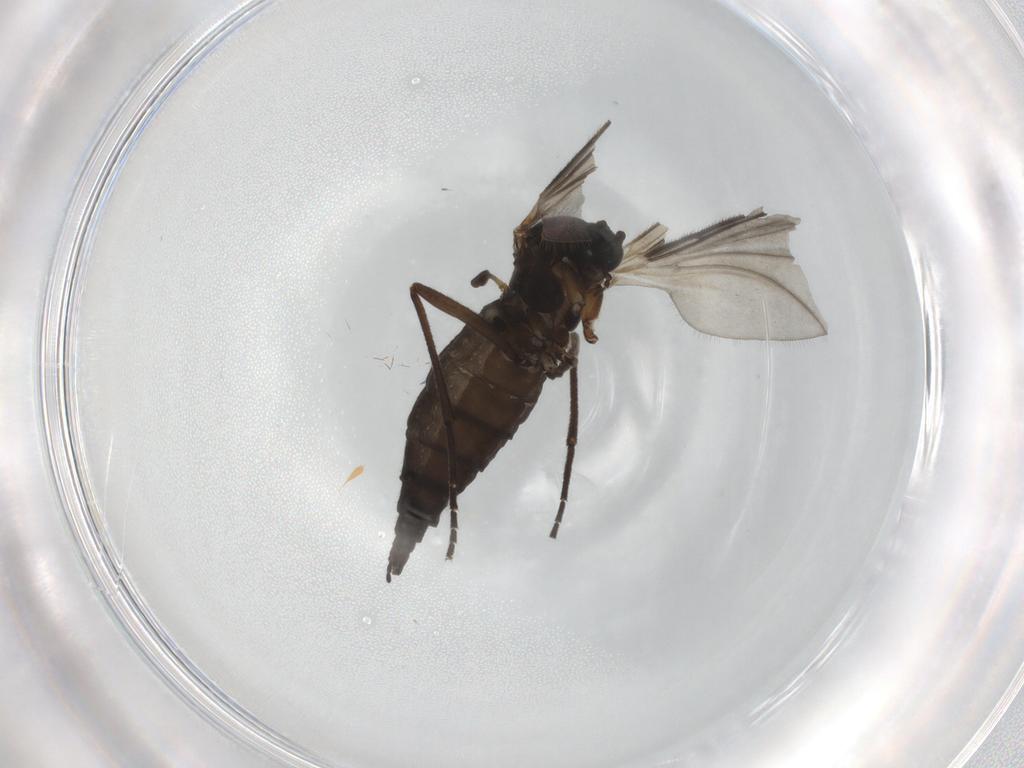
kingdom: Animalia
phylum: Arthropoda
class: Insecta
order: Diptera
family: Sciaridae
